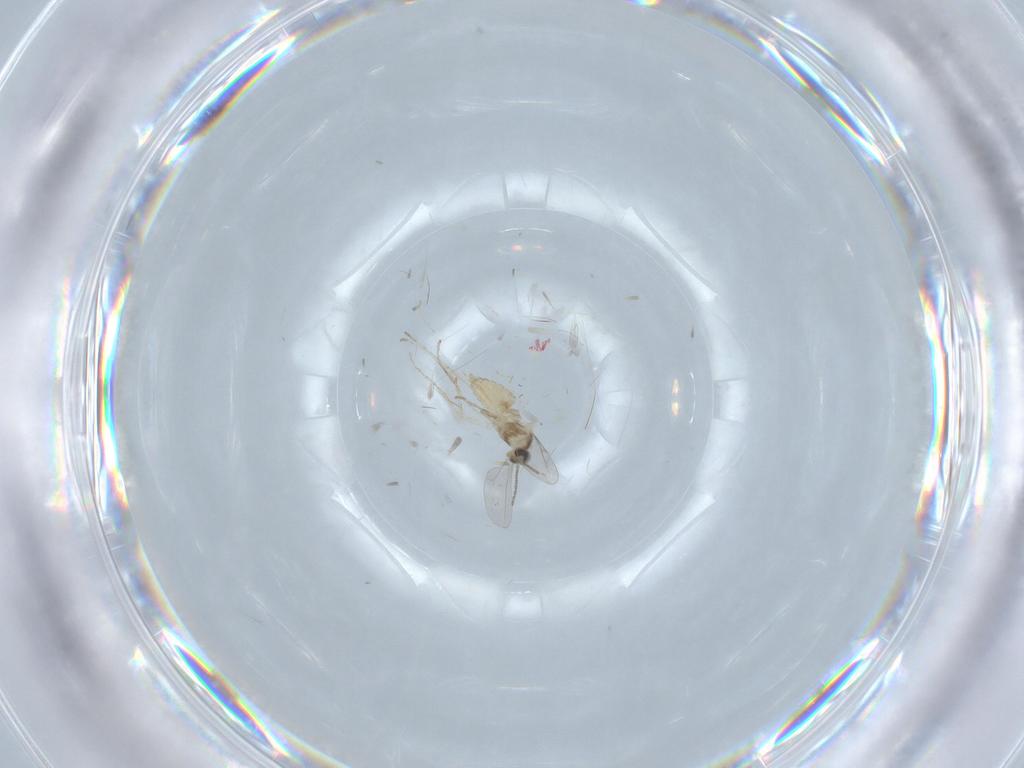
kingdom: Animalia
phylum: Arthropoda
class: Insecta
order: Diptera
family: Cecidomyiidae
